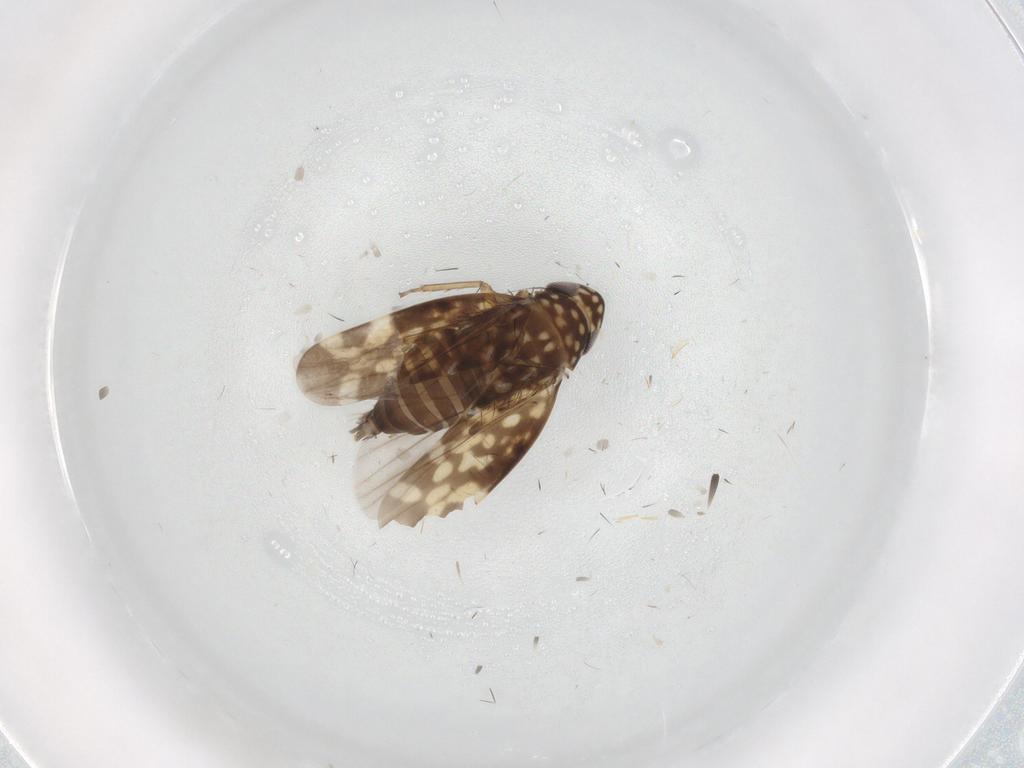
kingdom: Animalia
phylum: Arthropoda
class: Insecta
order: Hemiptera
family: Cicadellidae
